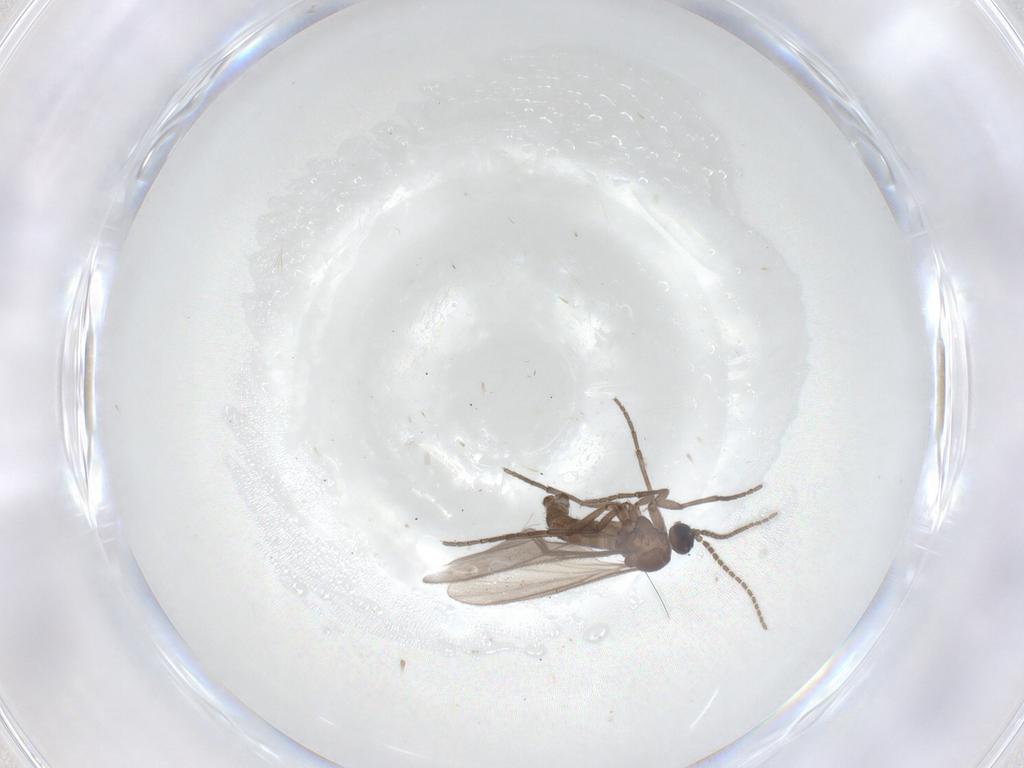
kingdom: Animalia
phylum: Arthropoda
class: Insecta
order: Diptera
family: Sciaridae
